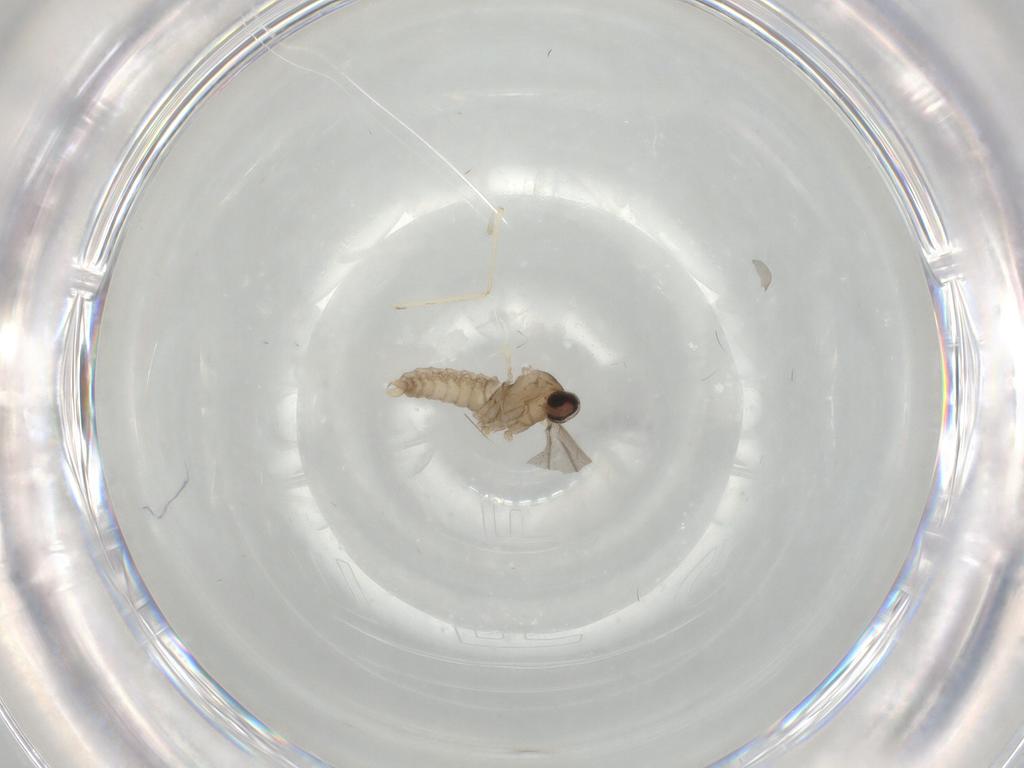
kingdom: Animalia
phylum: Arthropoda
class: Insecta
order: Diptera
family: Cecidomyiidae
